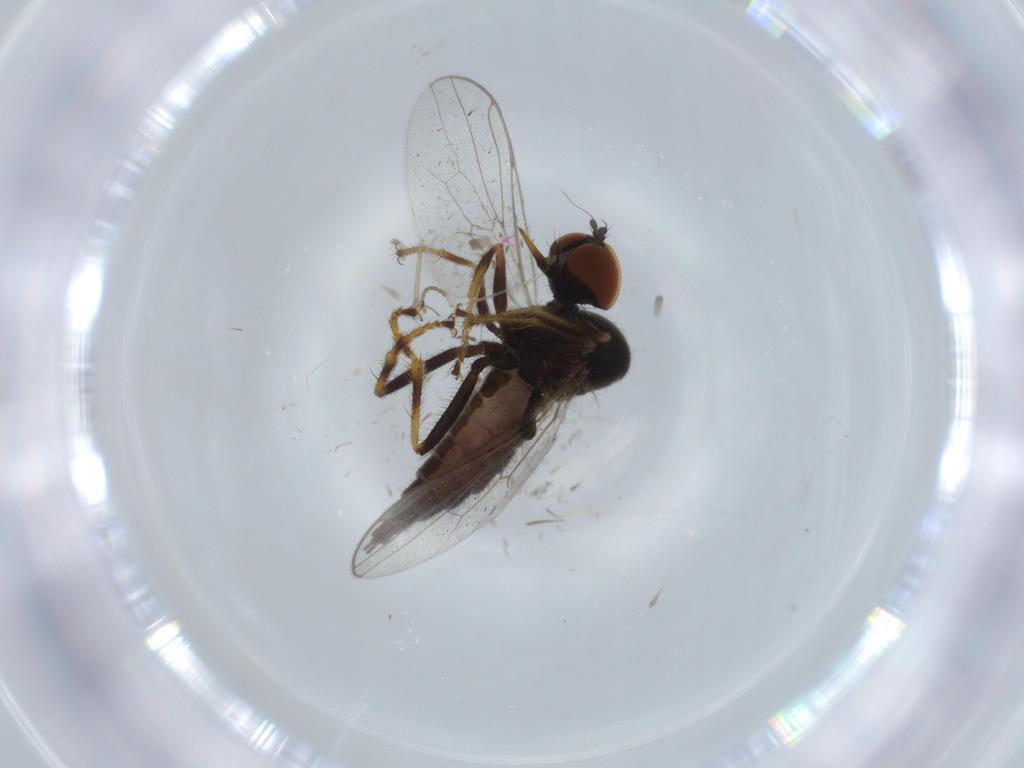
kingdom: Animalia
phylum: Arthropoda
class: Insecta
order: Diptera
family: Hybotidae
